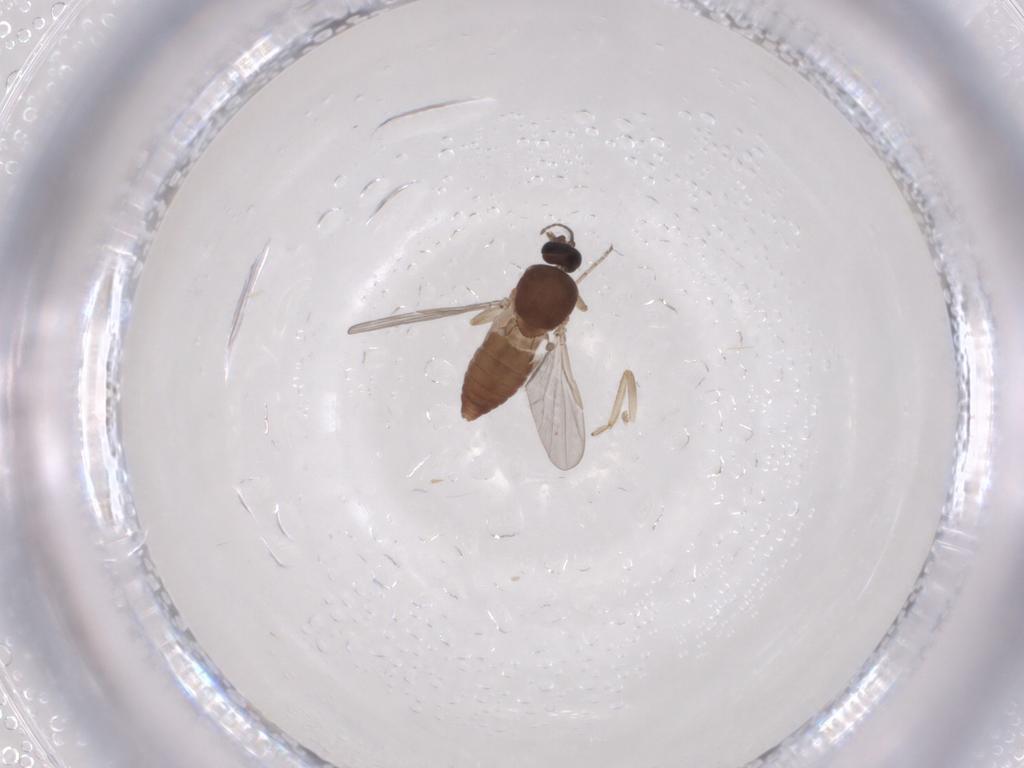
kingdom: Animalia
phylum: Arthropoda
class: Insecta
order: Diptera
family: Ceratopogonidae
